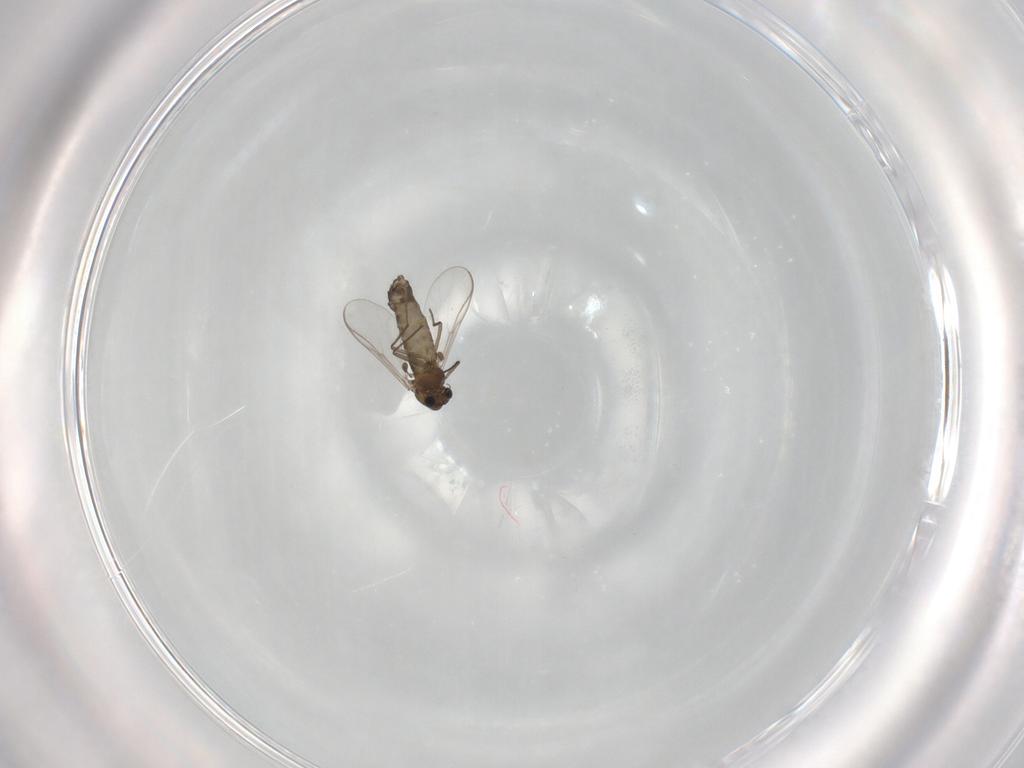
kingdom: Animalia
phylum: Arthropoda
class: Insecta
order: Diptera
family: Chironomidae
